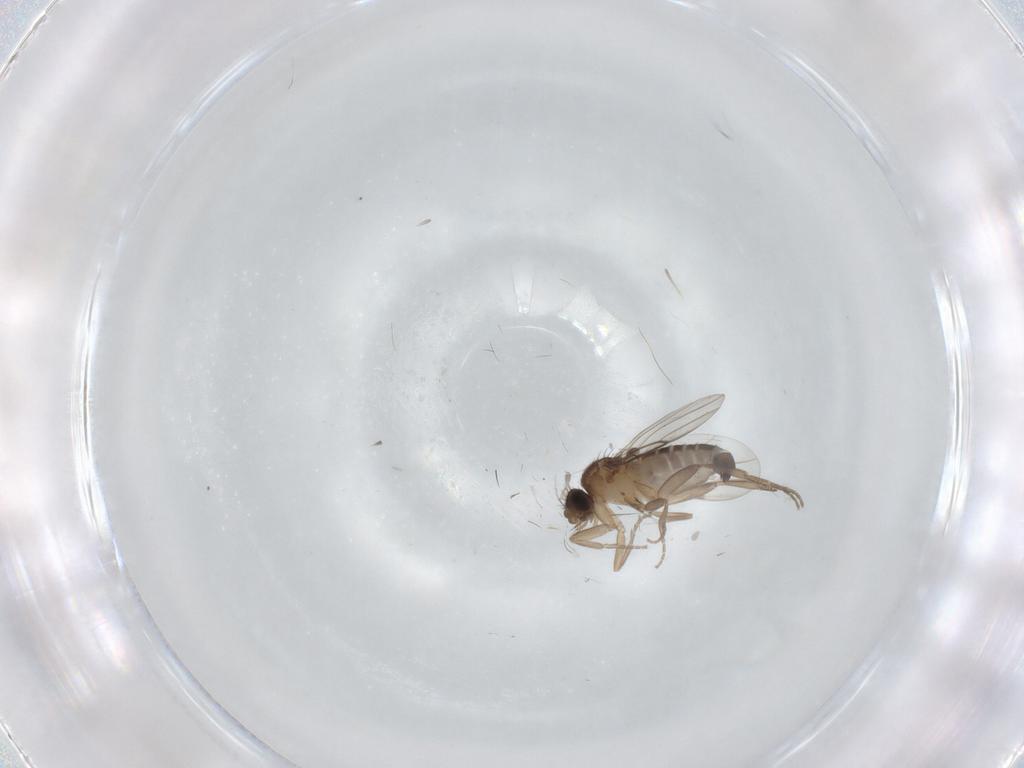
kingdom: Animalia
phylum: Arthropoda
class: Insecta
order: Diptera
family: Phoridae
